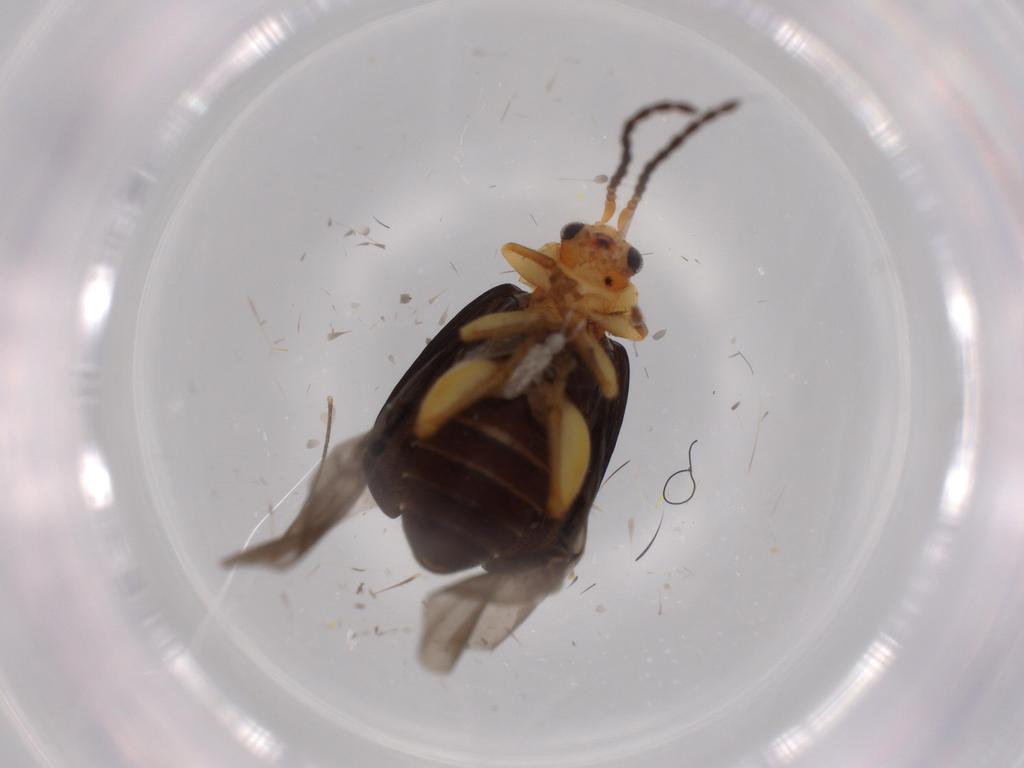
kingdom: Animalia
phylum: Arthropoda
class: Insecta
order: Coleoptera
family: Chrysomelidae
